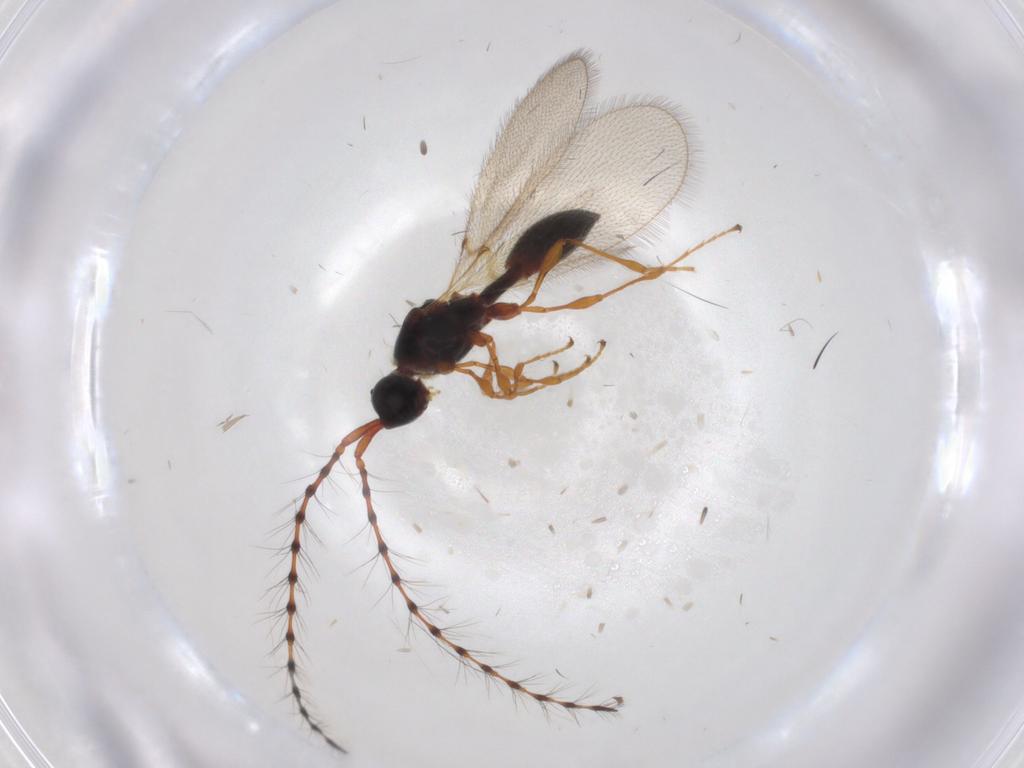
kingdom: Animalia
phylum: Arthropoda
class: Insecta
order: Hymenoptera
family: Diapriidae
